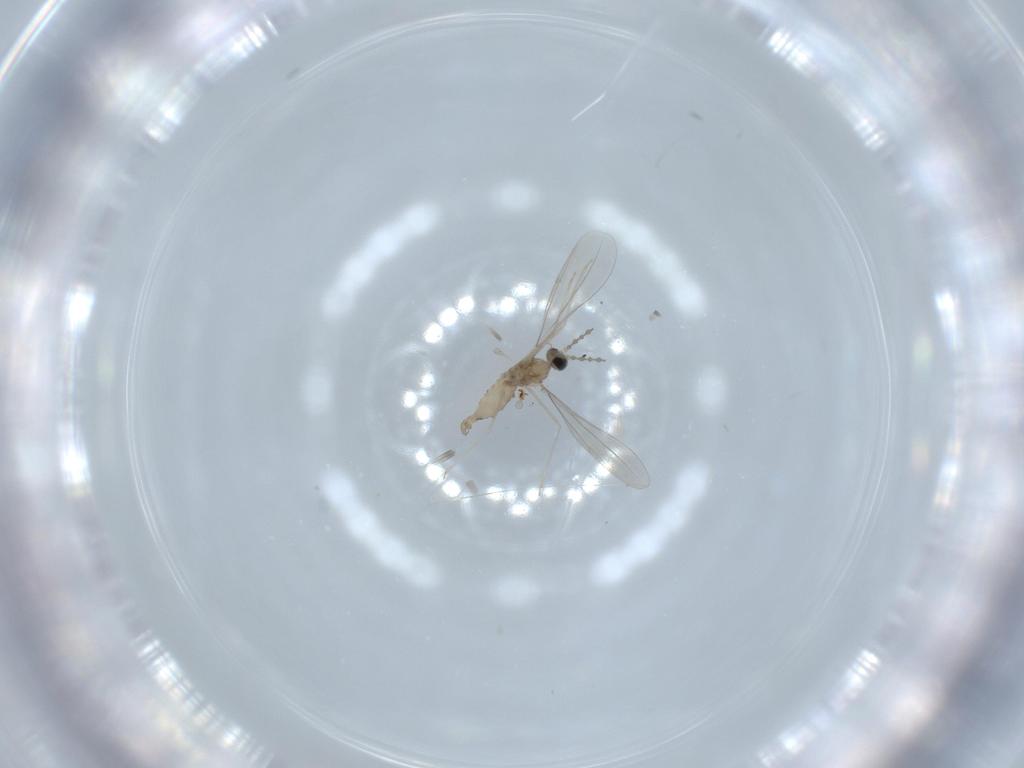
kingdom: Animalia
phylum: Arthropoda
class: Insecta
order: Diptera
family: Cecidomyiidae
